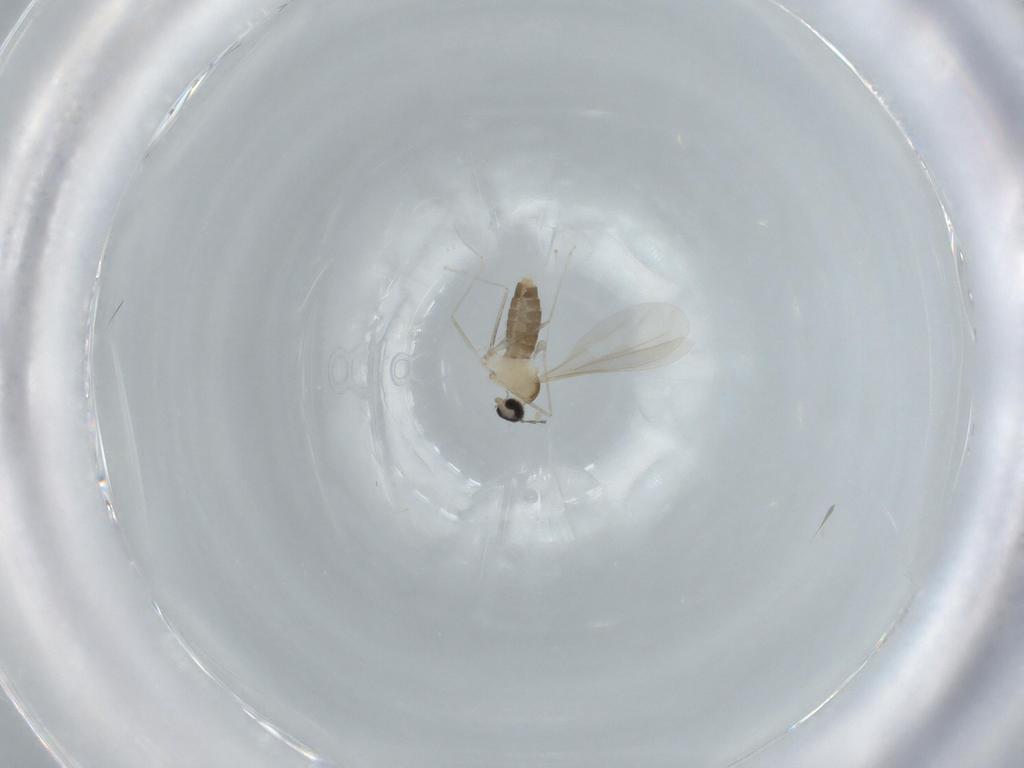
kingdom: Animalia
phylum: Arthropoda
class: Insecta
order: Diptera
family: Cecidomyiidae
